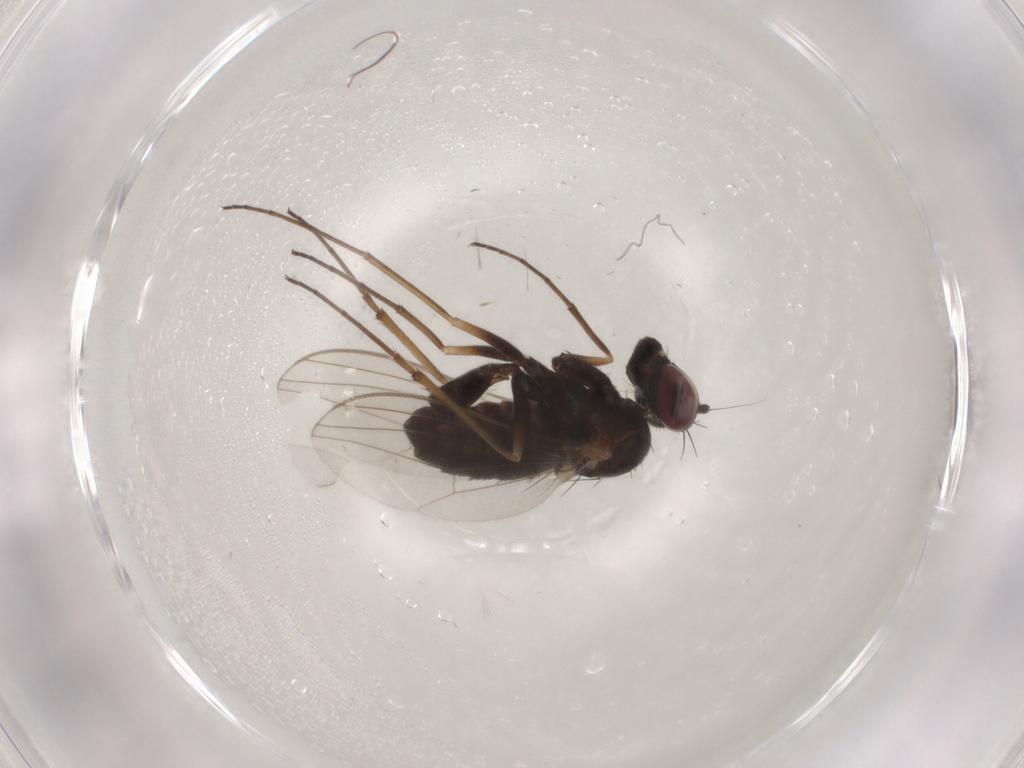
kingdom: Animalia
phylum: Arthropoda
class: Insecta
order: Diptera
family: Dolichopodidae
